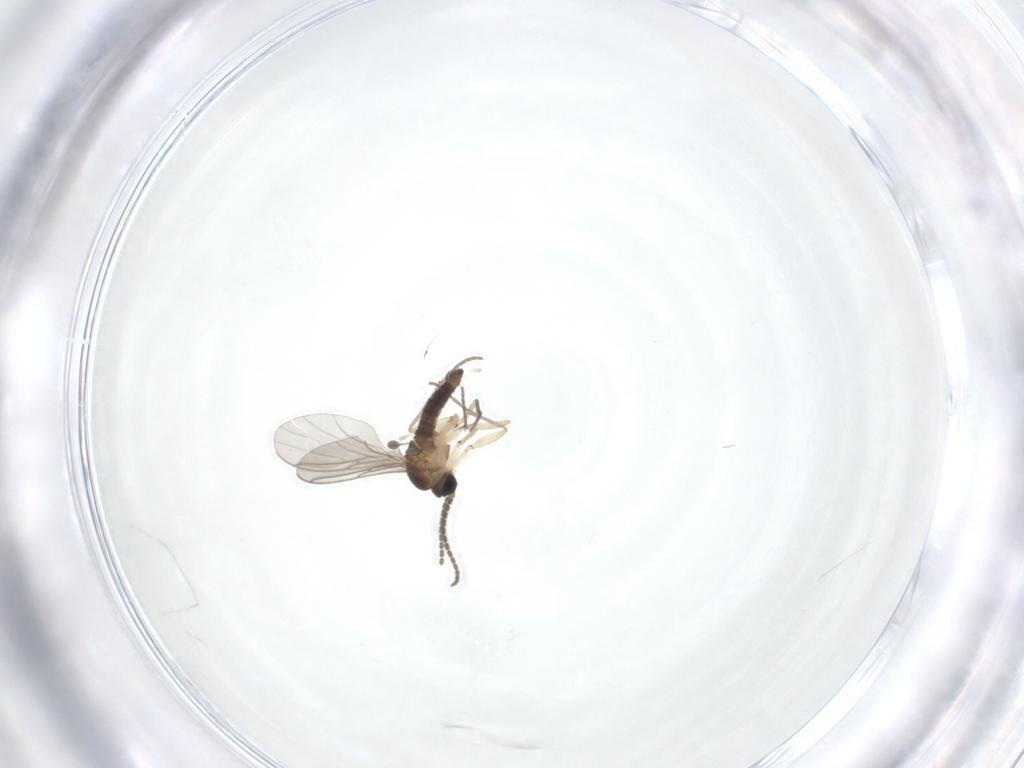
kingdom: Animalia
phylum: Arthropoda
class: Insecta
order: Diptera
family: Sciaridae
